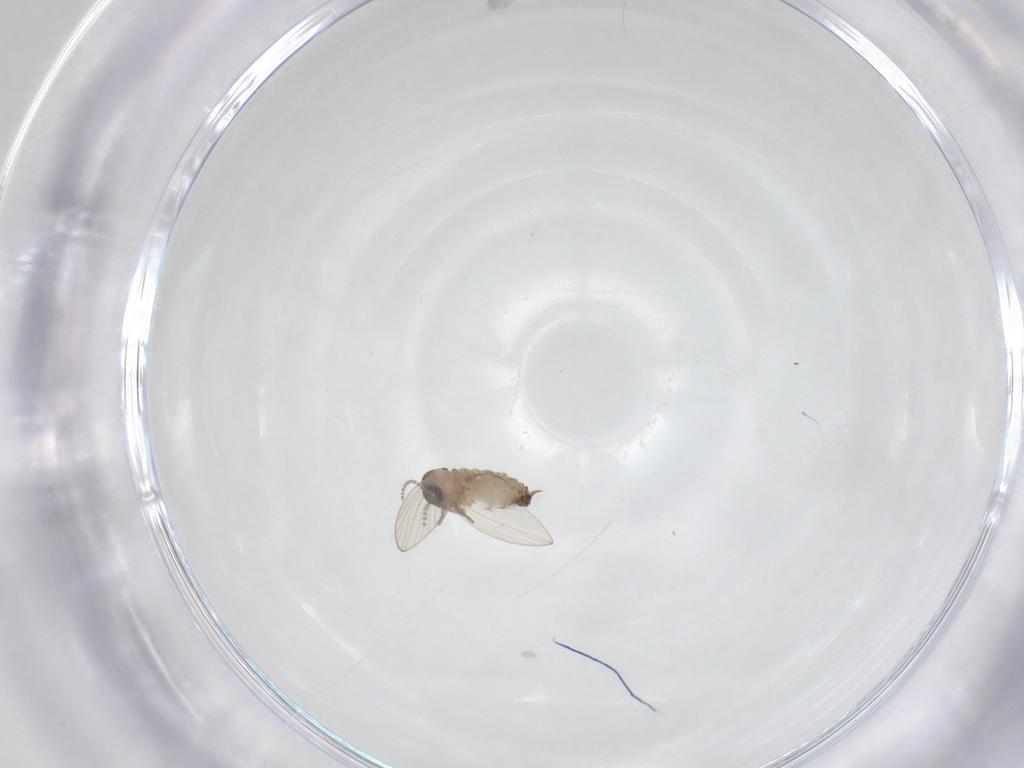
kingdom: Animalia
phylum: Arthropoda
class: Insecta
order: Diptera
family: Psychodidae
